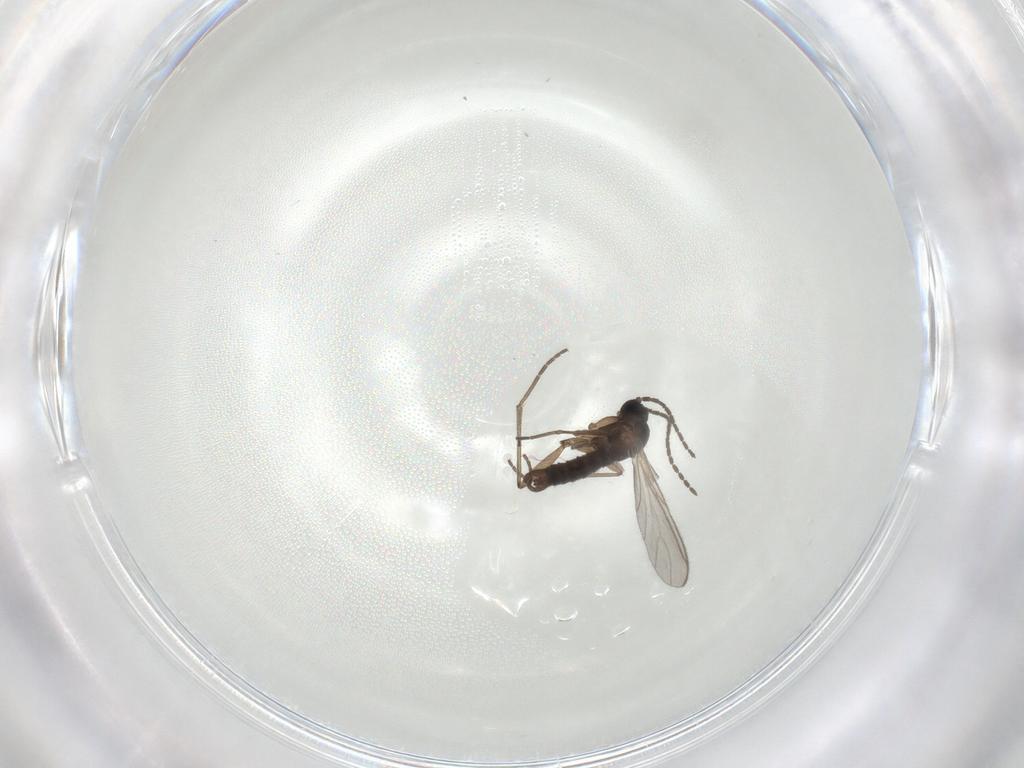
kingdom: Animalia
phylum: Arthropoda
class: Insecta
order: Diptera
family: Sciaridae
